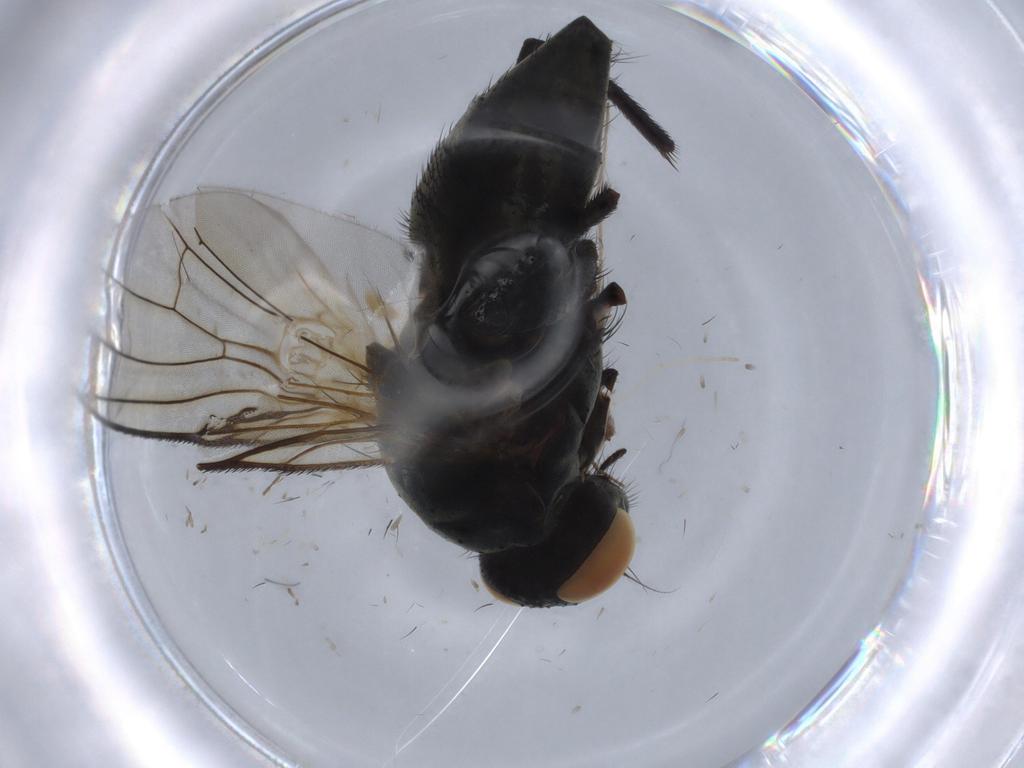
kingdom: Animalia
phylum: Arthropoda
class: Insecta
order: Diptera
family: Muscidae
